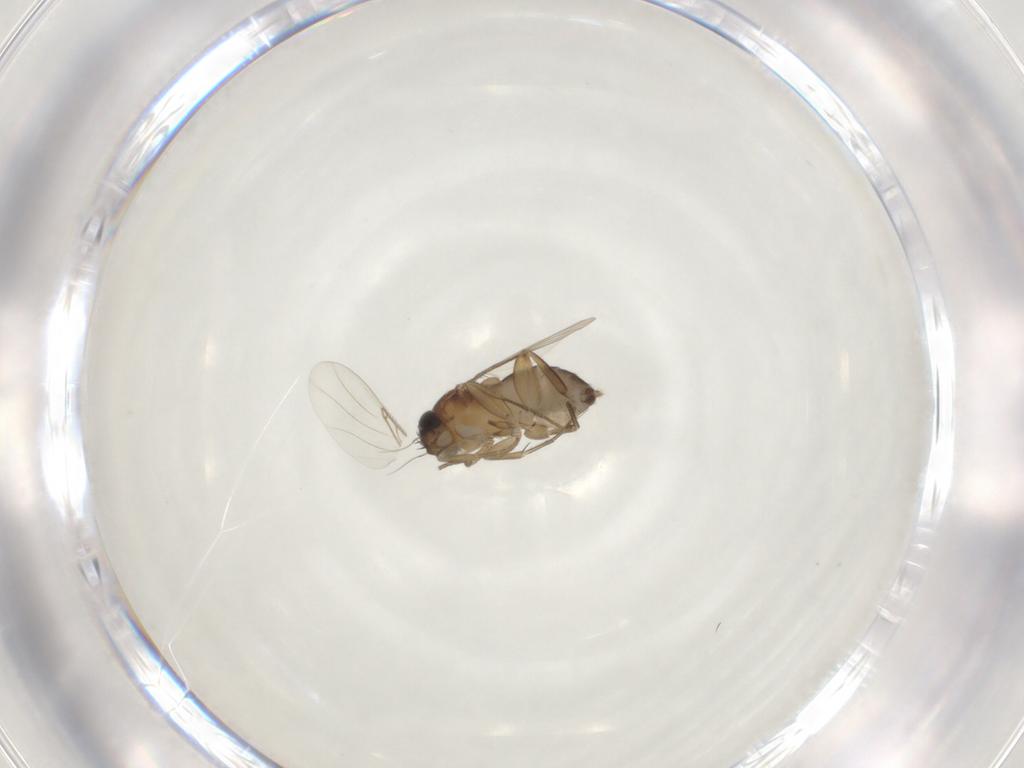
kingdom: Animalia
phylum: Arthropoda
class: Insecta
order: Diptera
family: Phoridae
